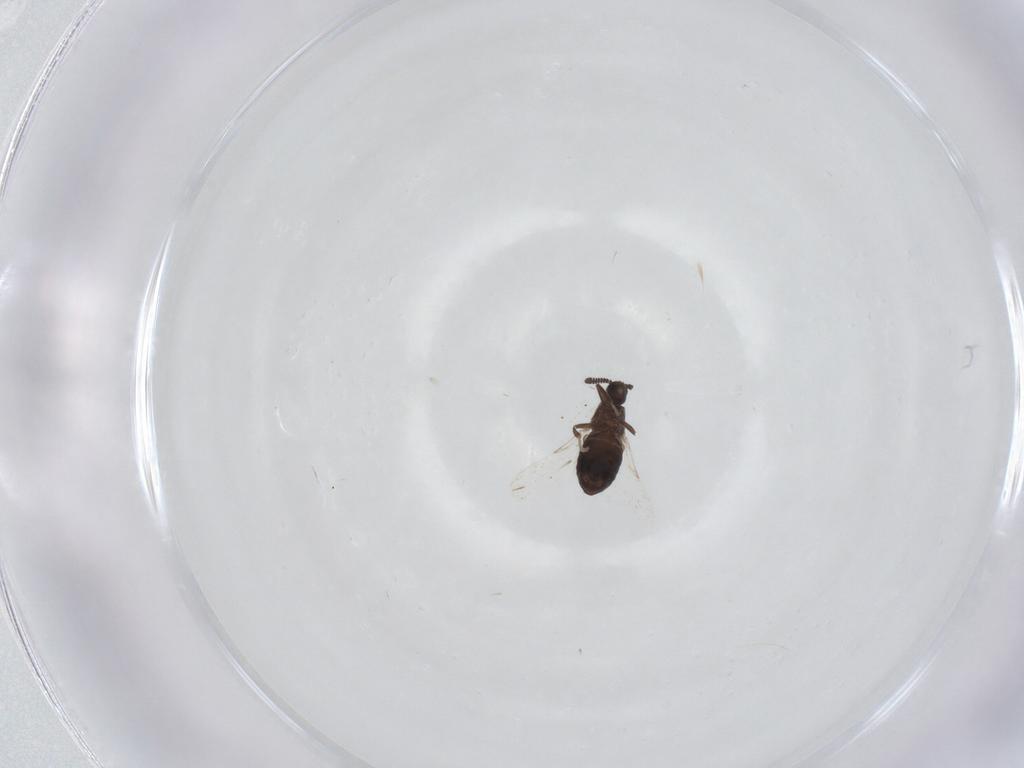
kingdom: Animalia
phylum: Arthropoda
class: Insecta
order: Diptera
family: Scatopsidae
